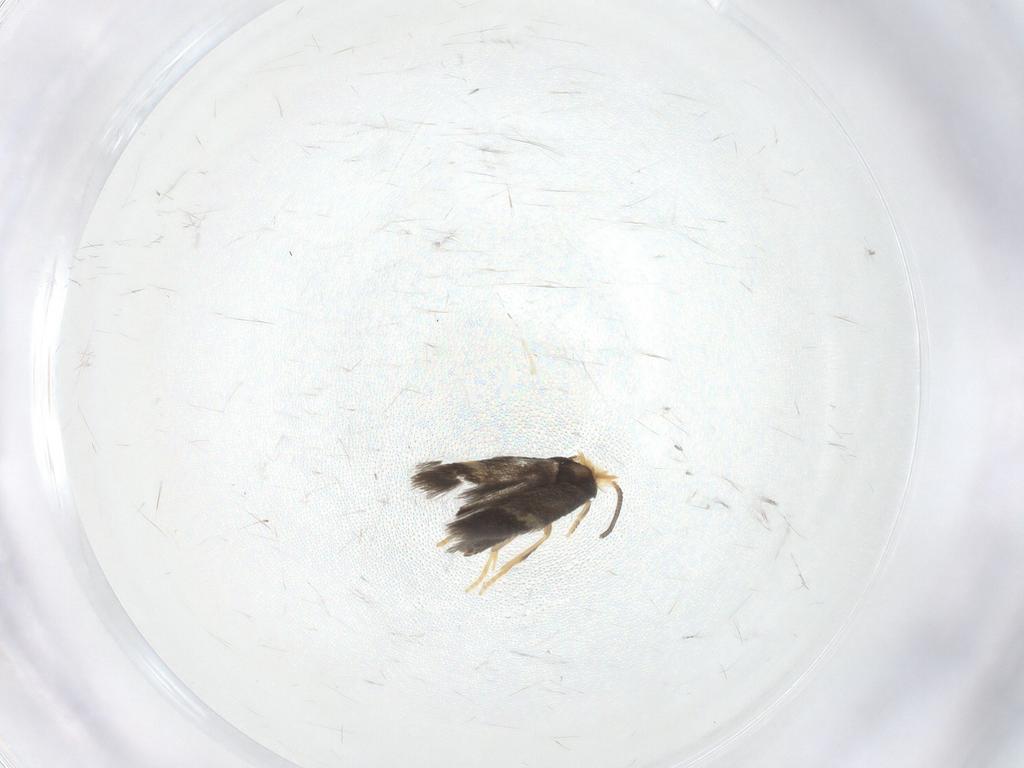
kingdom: Animalia
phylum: Arthropoda
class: Insecta
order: Lepidoptera
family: Nepticulidae
